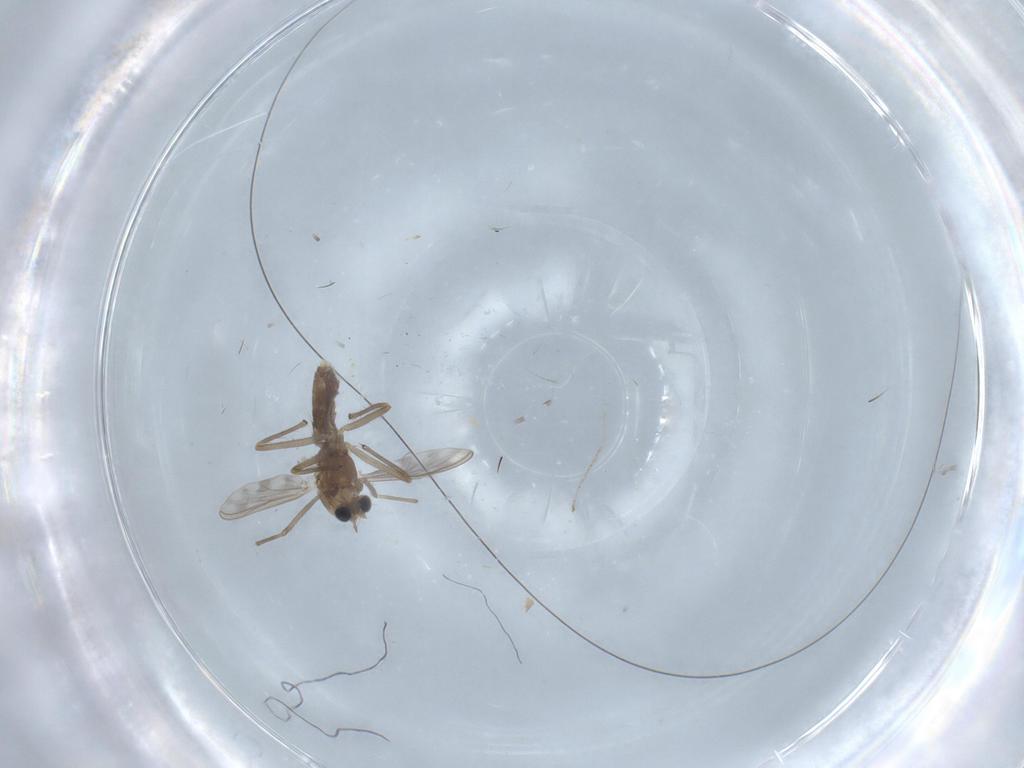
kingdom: Animalia
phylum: Arthropoda
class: Insecta
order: Diptera
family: Chironomidae
